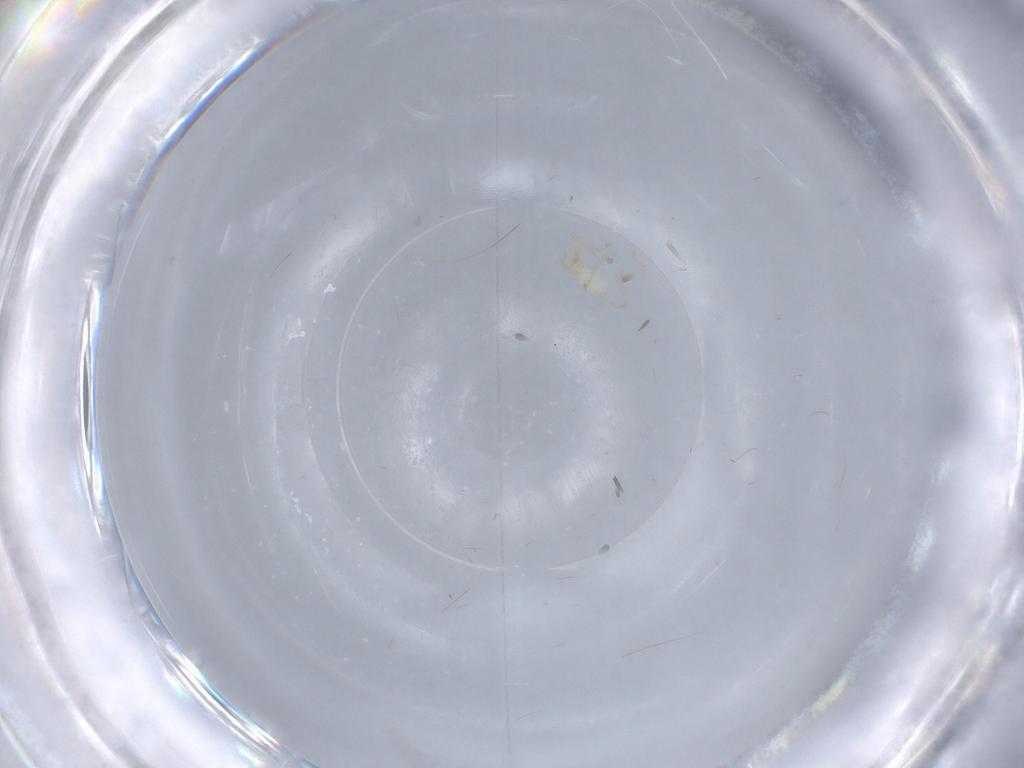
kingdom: Animalia
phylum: Arthropoda
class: Arachnida
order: Trombidiformes
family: Erythraeidae
